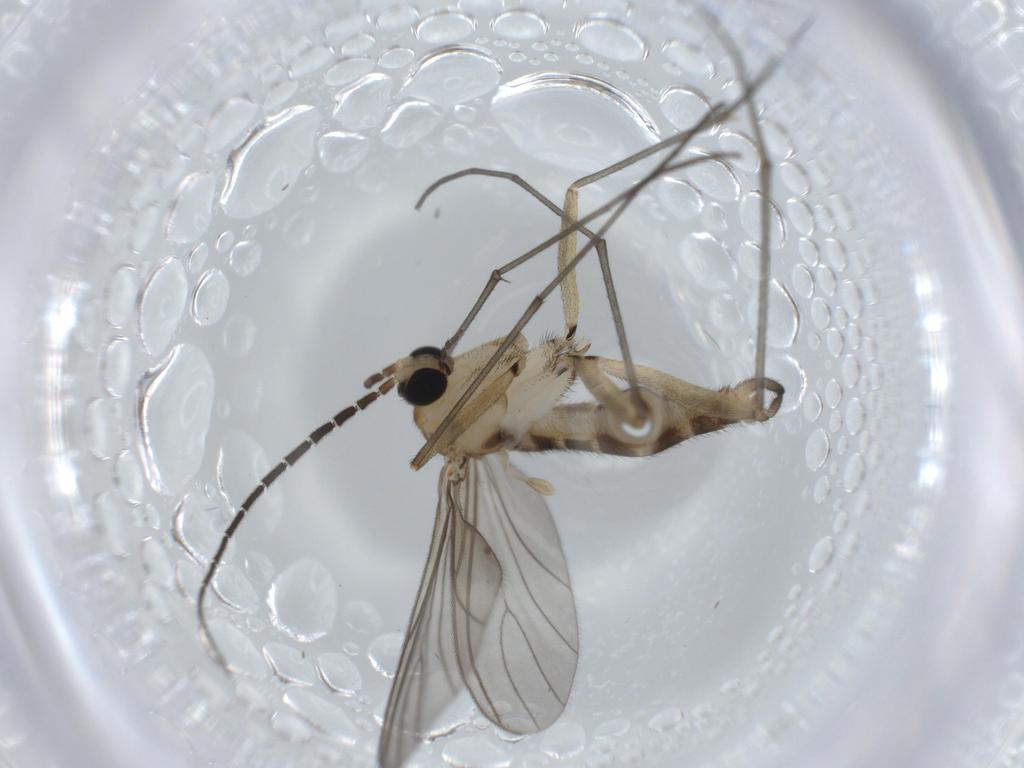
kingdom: Animalia
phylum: Arthropoda
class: Insecta
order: Diptera
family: Sciaridae
